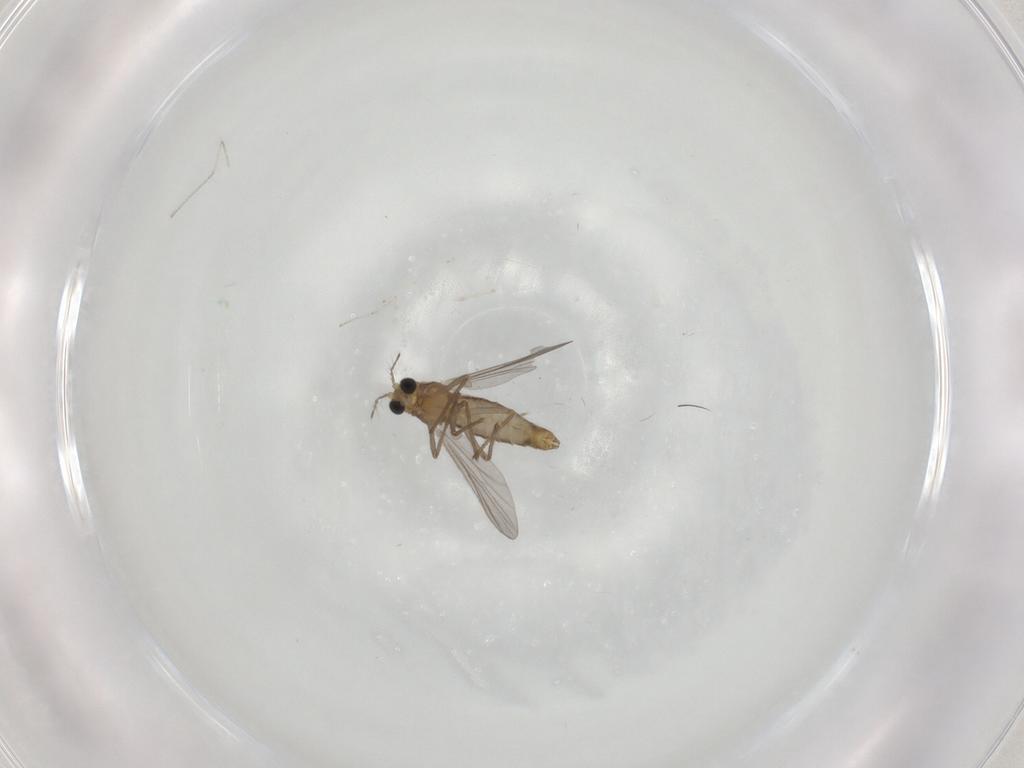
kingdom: Animalia
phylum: Arthropoda
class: Insecta
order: Diptera
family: Chironomidae
